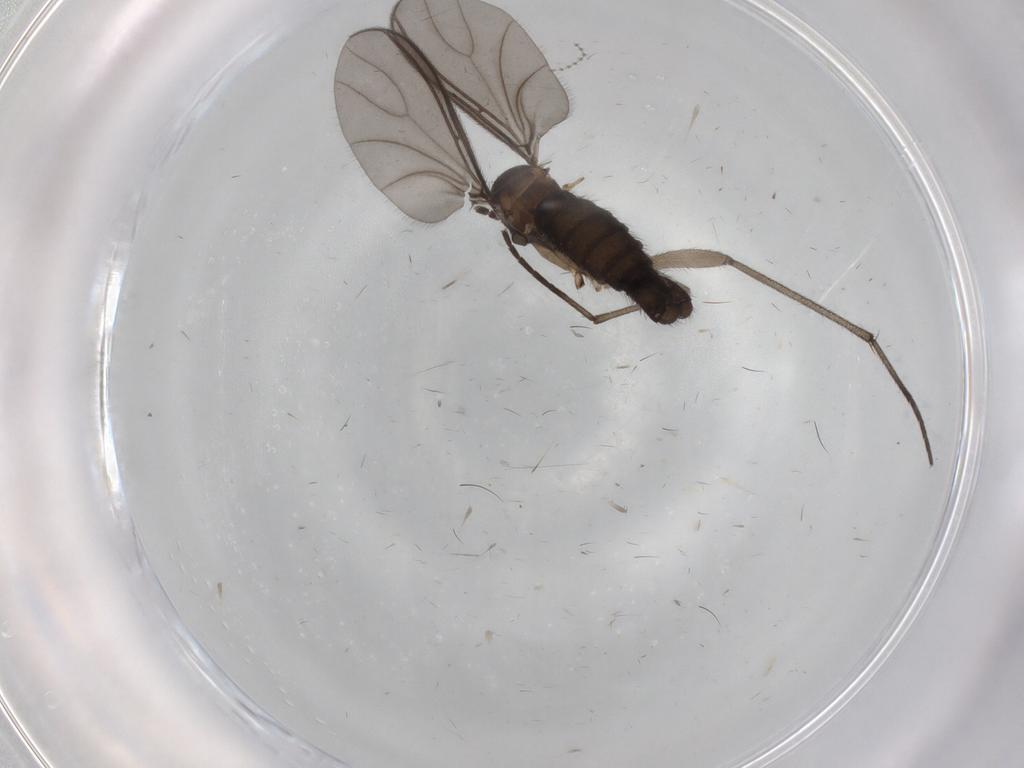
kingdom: Animalia
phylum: Arthropoda
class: Insecta
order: Diptera
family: Sciaridae
